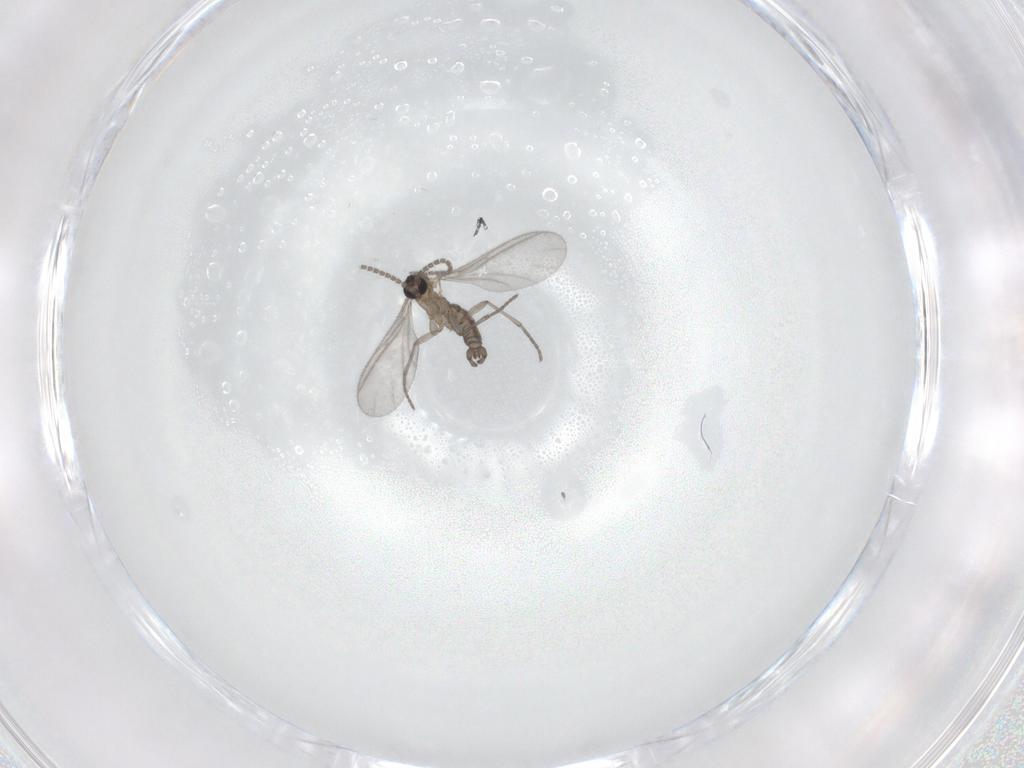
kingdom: Animalia
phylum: Arthropoda
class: Insecta
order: Diptera
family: Sciaridae
